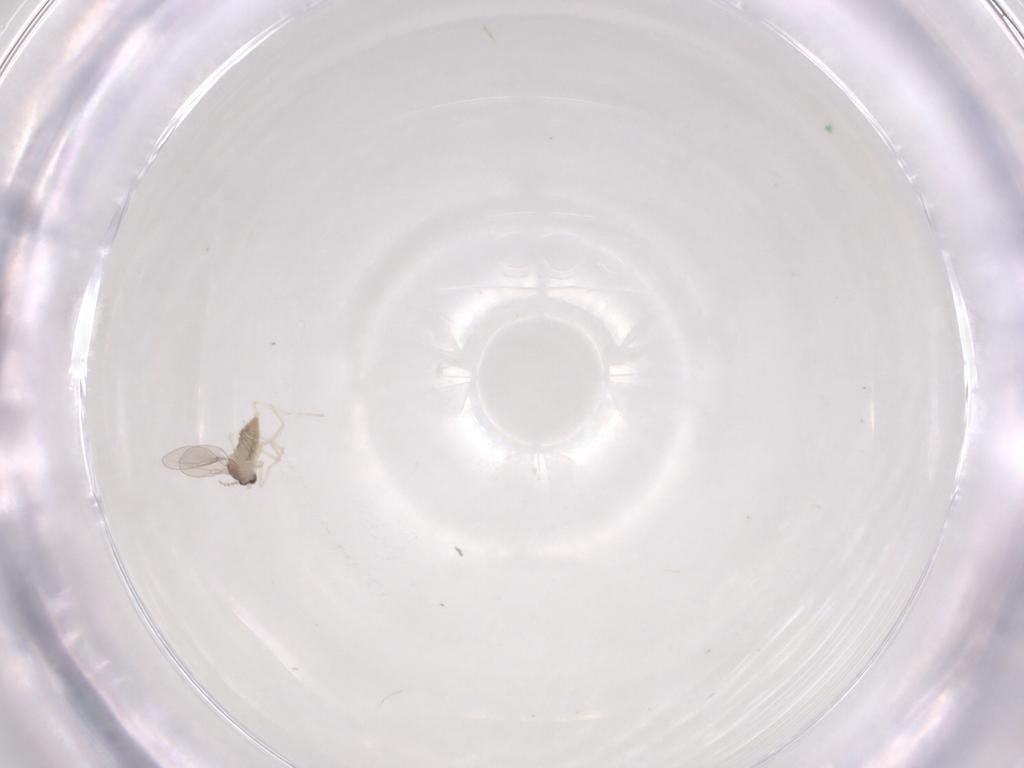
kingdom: Animalia
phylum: Arthropoda
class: Insecta
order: Diptera
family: Cecidomyiidae
